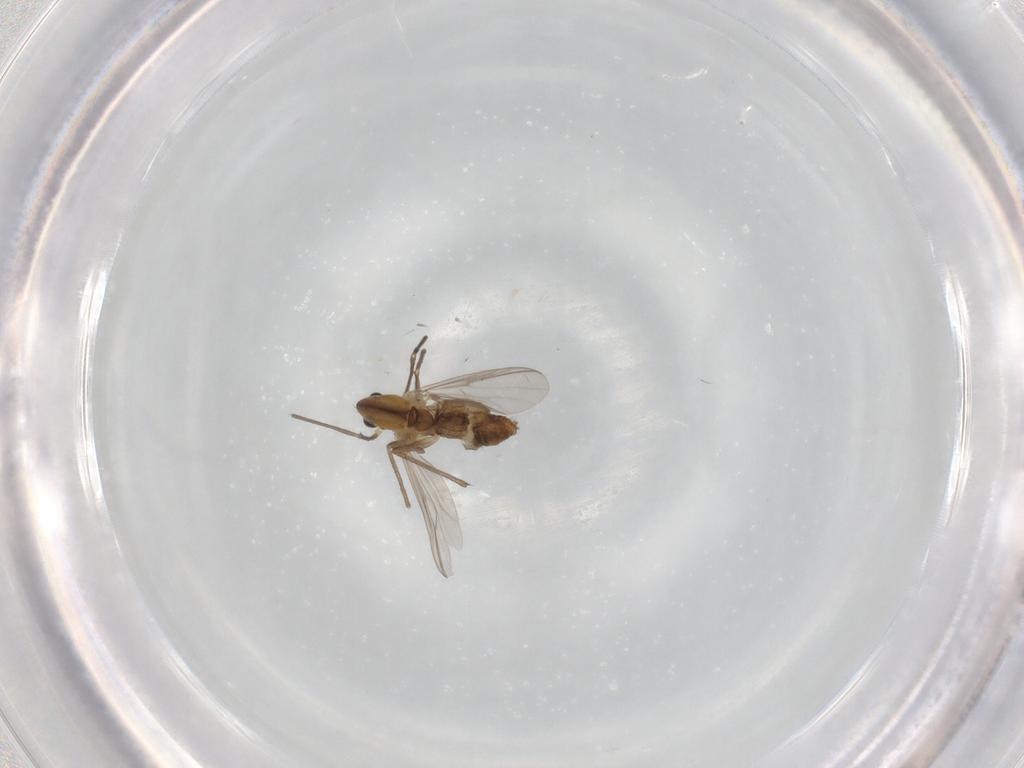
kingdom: Animalia
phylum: Arthropoda
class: Insecta
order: Diptera
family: Chironomidae
